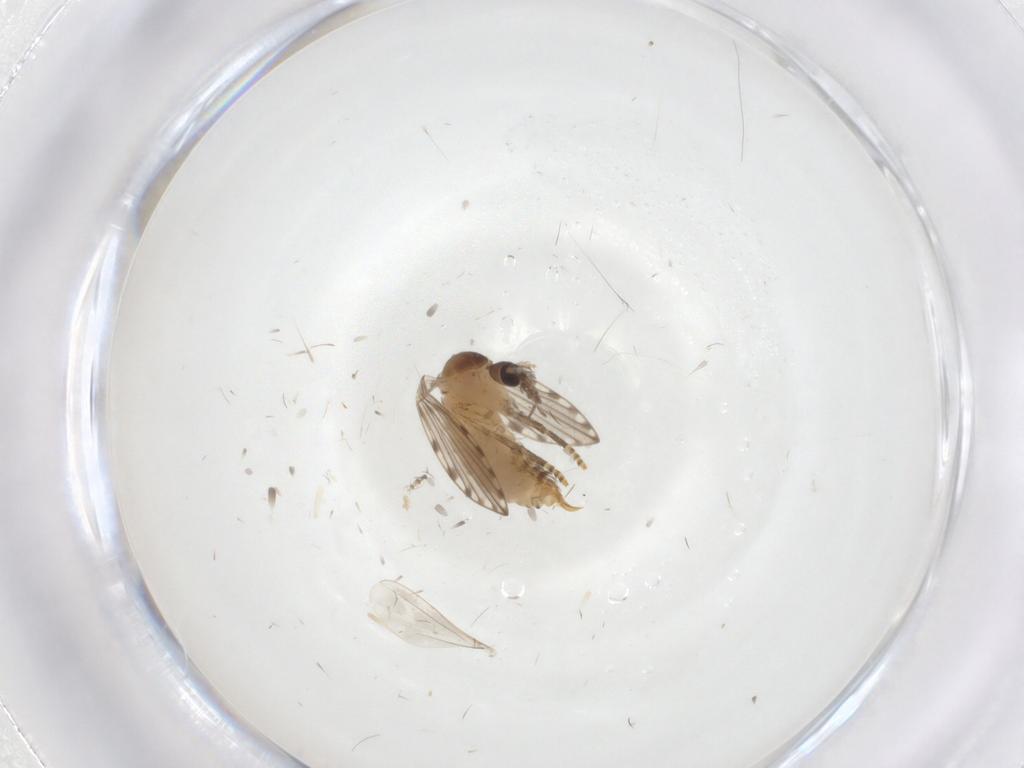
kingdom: Animalia
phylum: Arthropoda
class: Insecta
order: Diptera
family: Psychodidae
